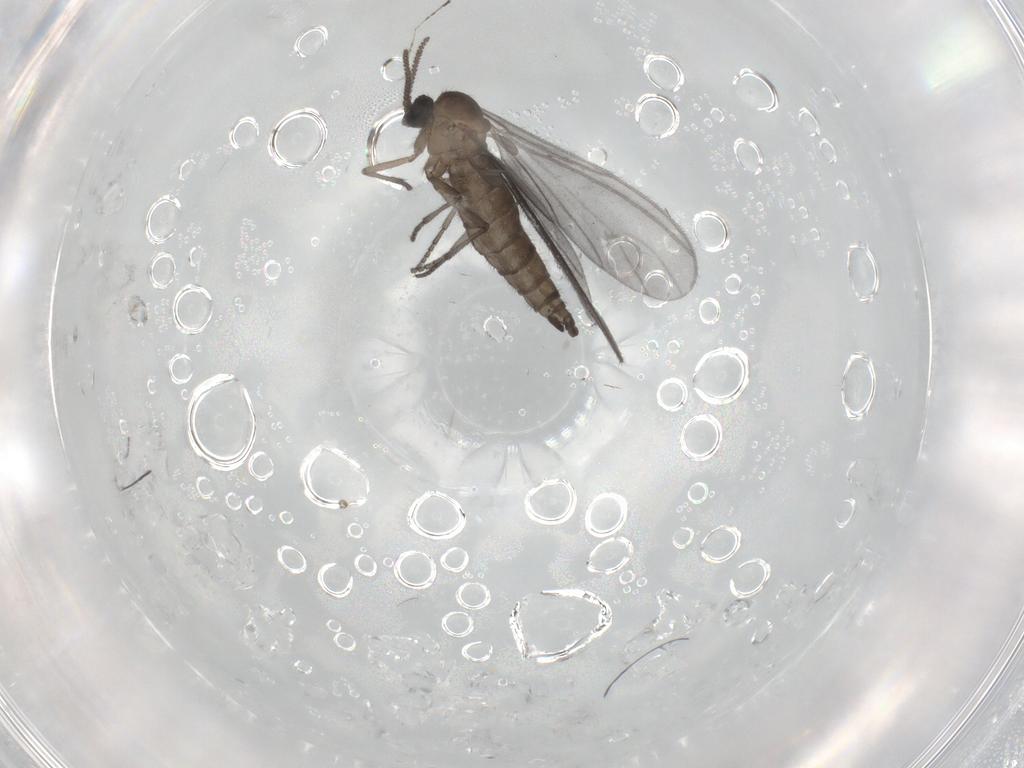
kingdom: Animalia
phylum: Arthropoda
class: Insecta
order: Diptera
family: Sciaridae
